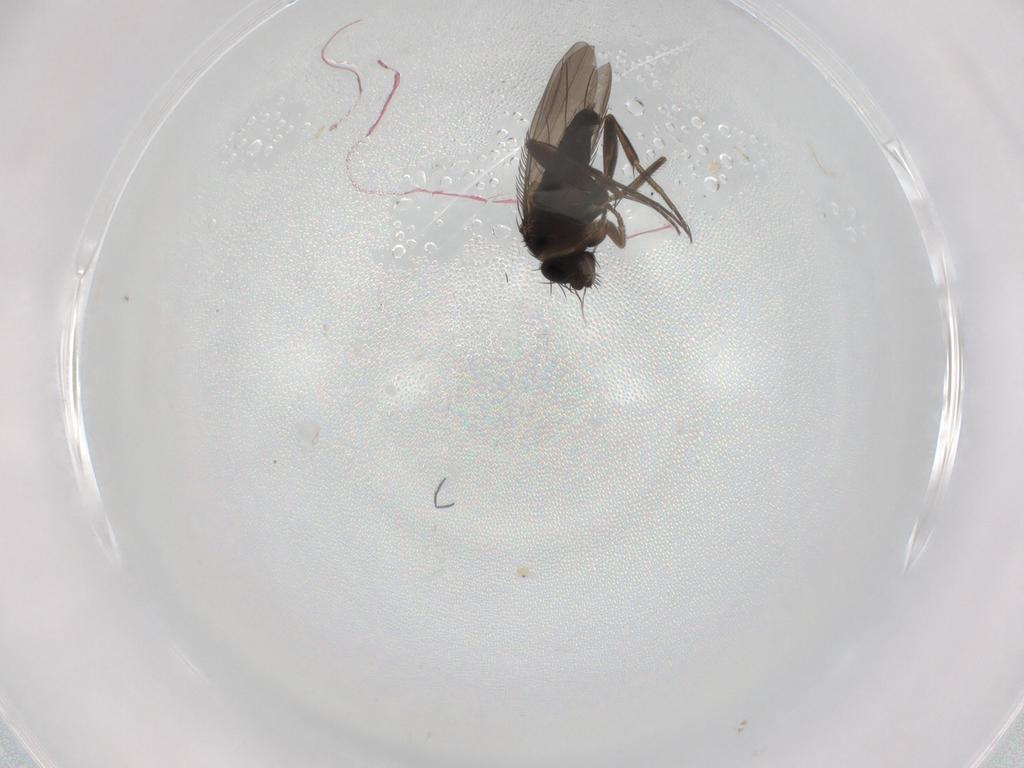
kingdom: Animalia
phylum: Arthropoda
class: Insecta
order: Diptera
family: Phoridae
